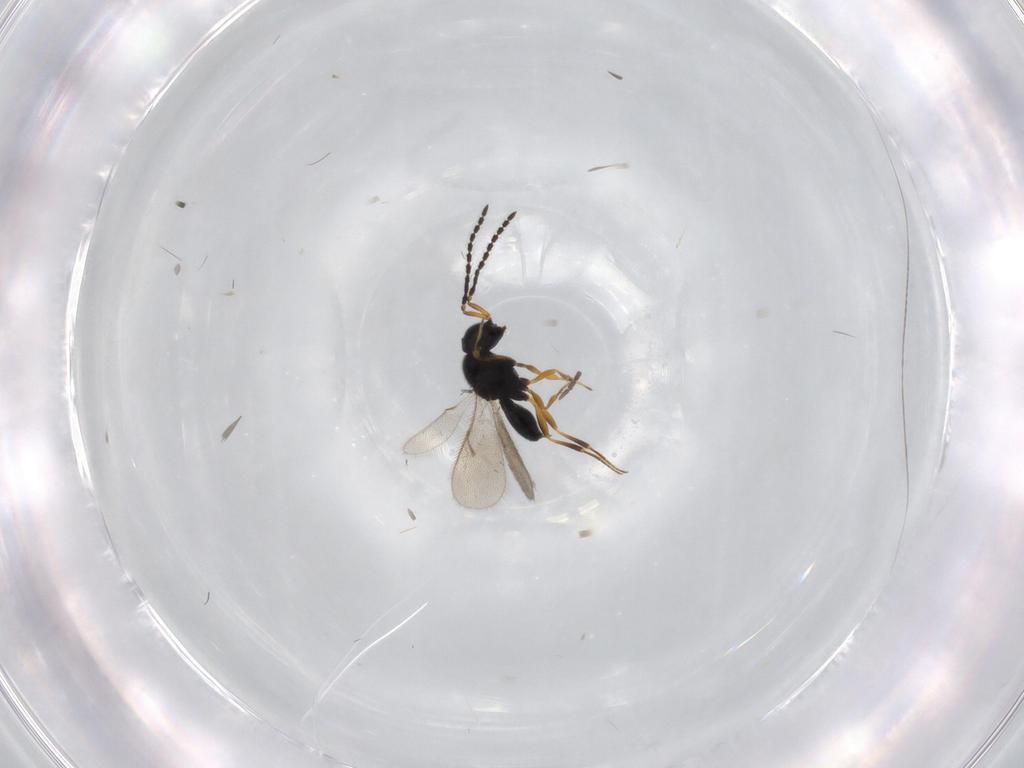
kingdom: Animalia
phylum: Arthropoda
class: Insecta
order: Hymenoptera
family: Scelionidae
